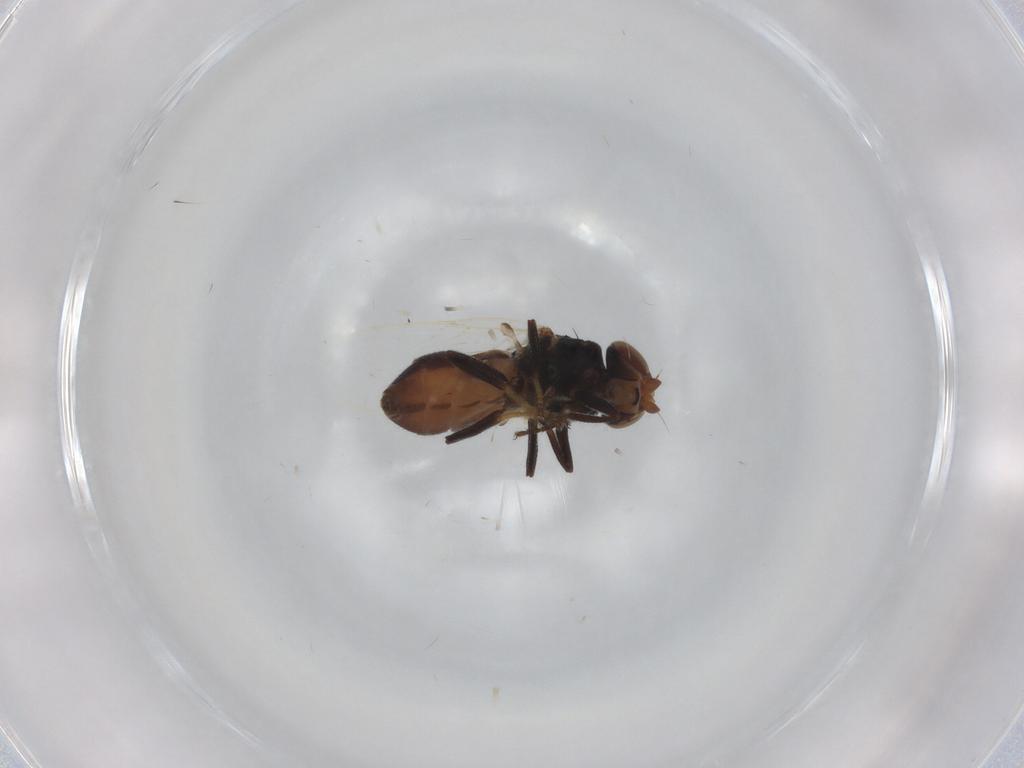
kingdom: Animalia
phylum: Arthropoda
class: Insecta
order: Diptera
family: Chloropidae
